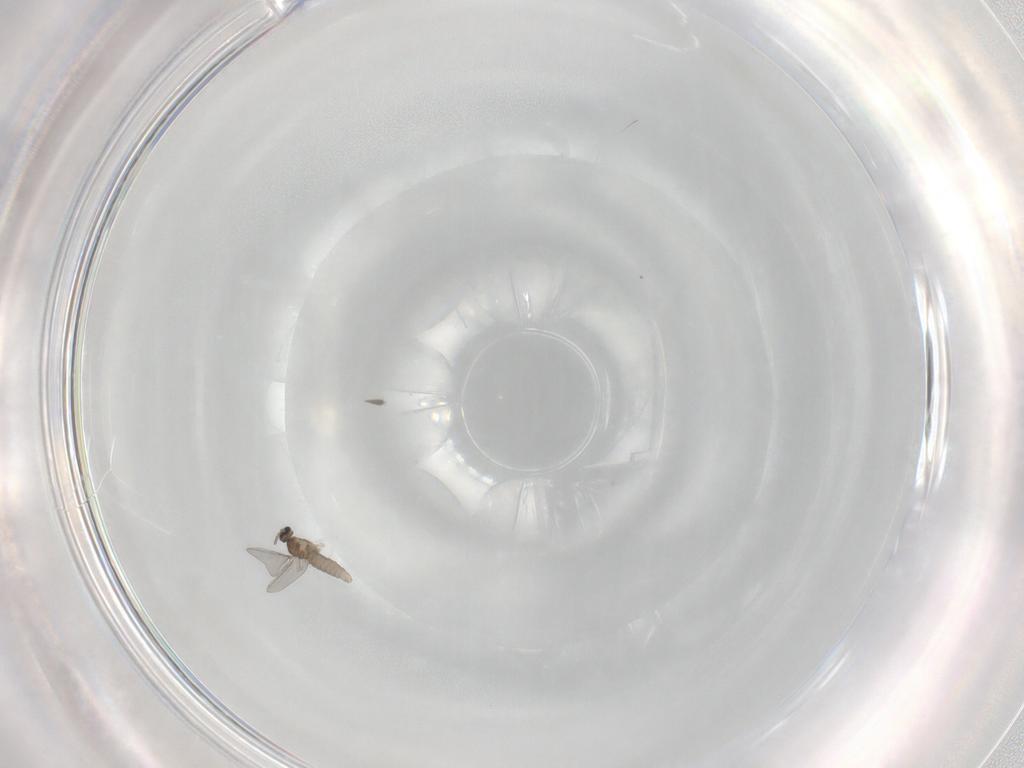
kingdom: Animalia
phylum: Arthropoda
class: Insecta
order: Diptera
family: Cecidomyiidae
